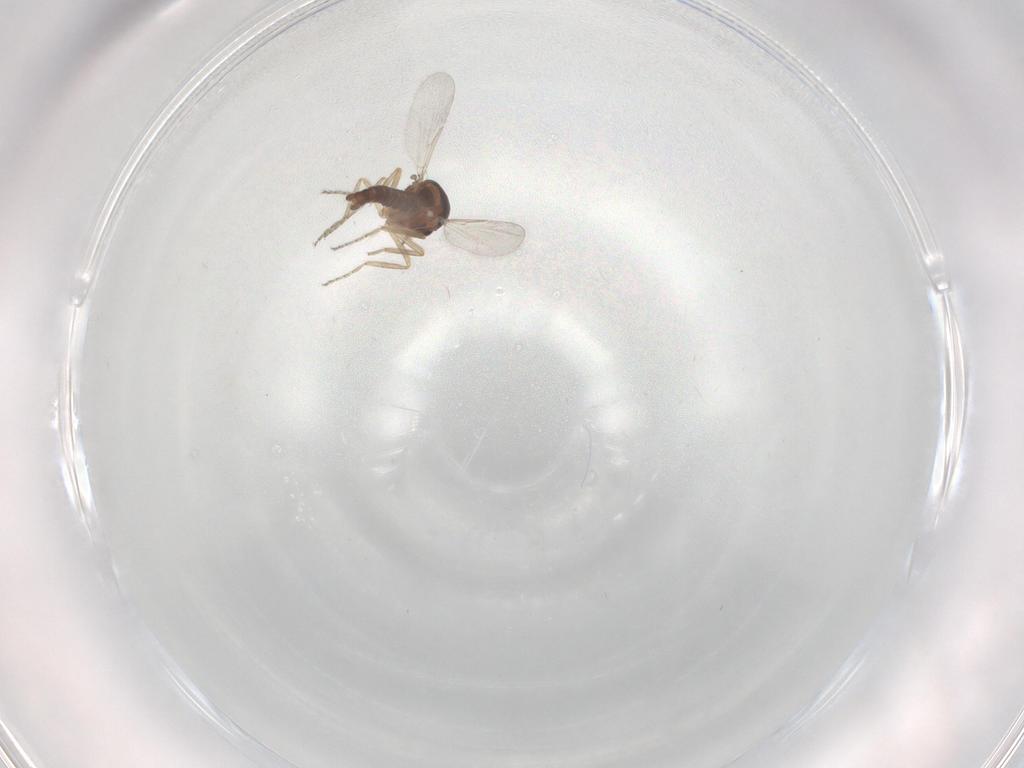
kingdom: Animalia
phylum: Arthropoda
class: Insecta
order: Diptera
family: Ceratopogonidae
